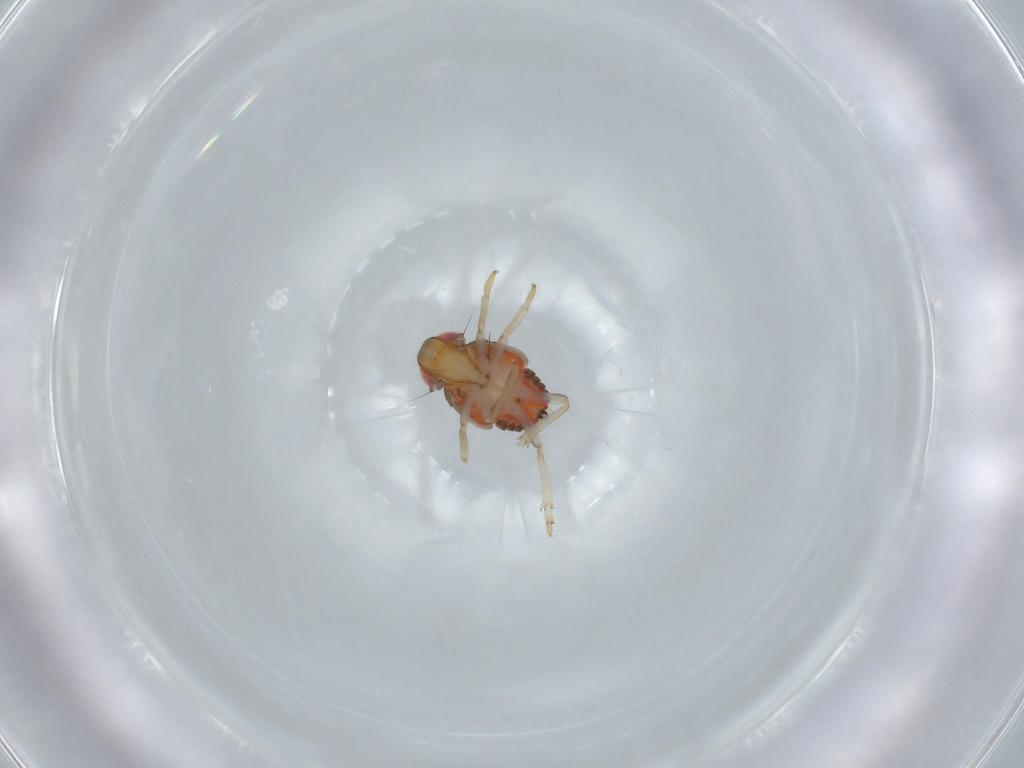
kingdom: Animalia
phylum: Arthropoda
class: Insecta
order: Hemiptera
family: Issidae
